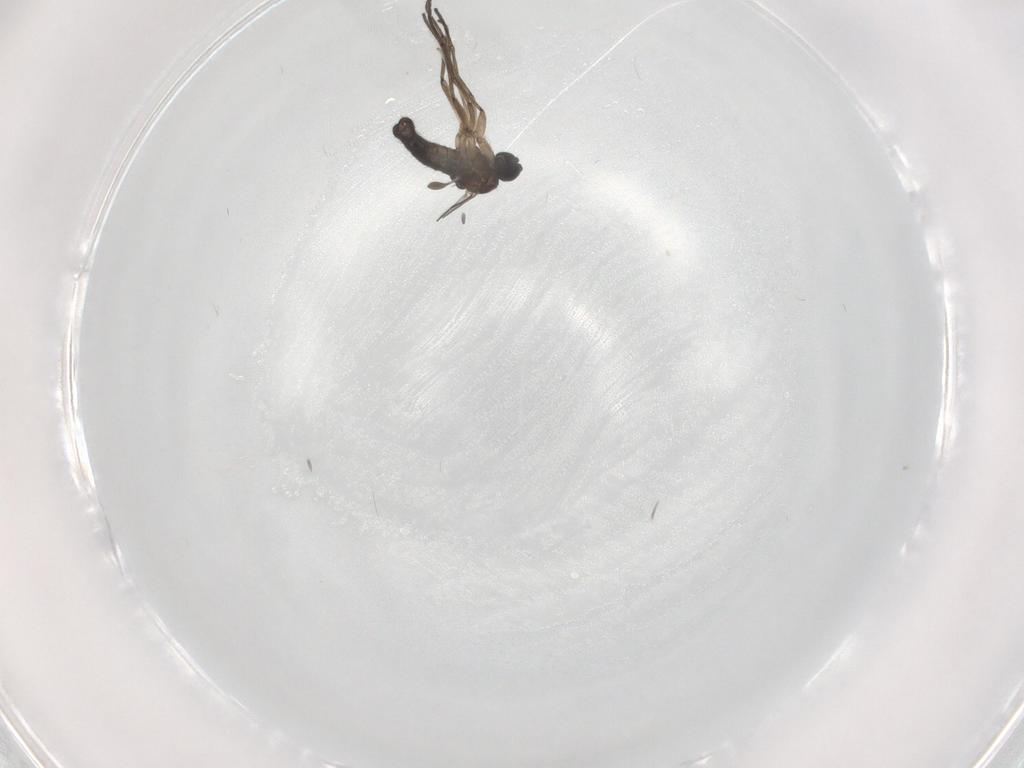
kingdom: Animalia
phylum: Arthropoda
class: Insecta
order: Diptera
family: Sciaridae
